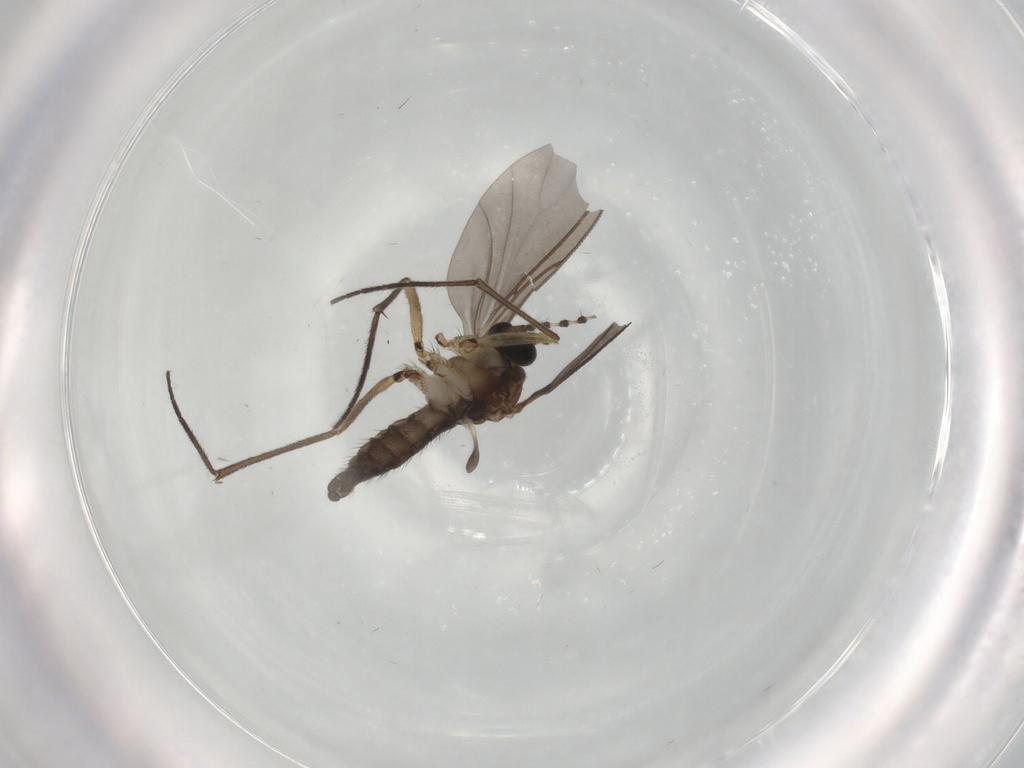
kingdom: Animalia
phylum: Arthropoda
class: Insecta
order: Diptera
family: Sciaridae
